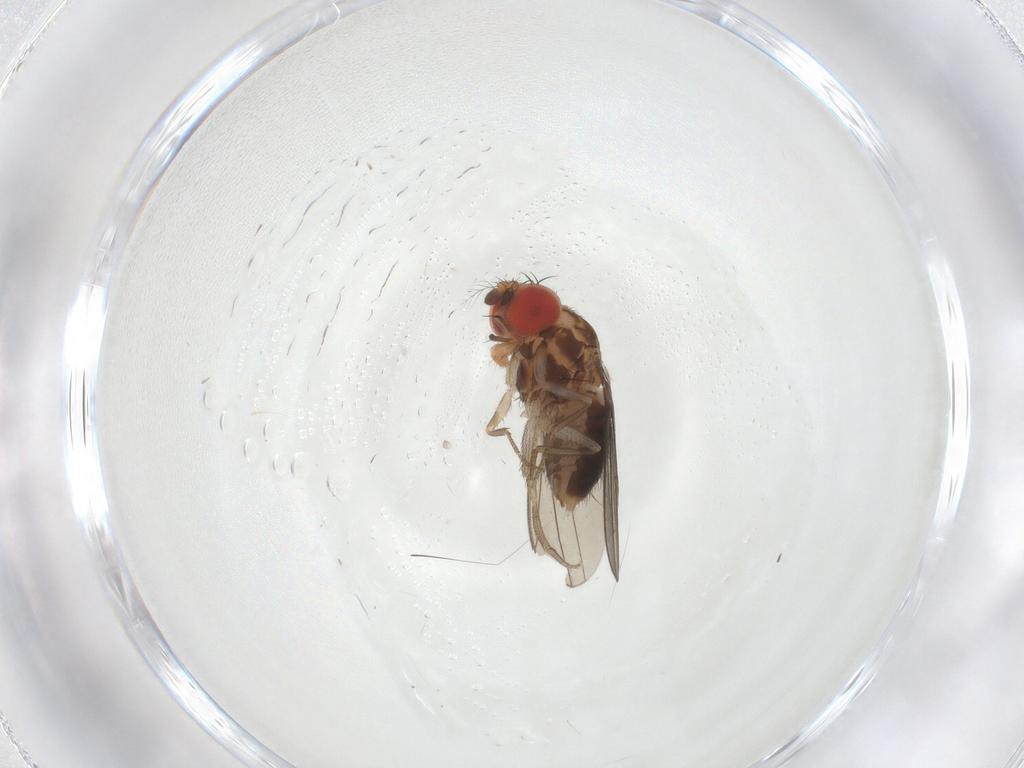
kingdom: Animalia
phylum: Arthropoda
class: Insecta
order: Diptera
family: Drosophilidae
